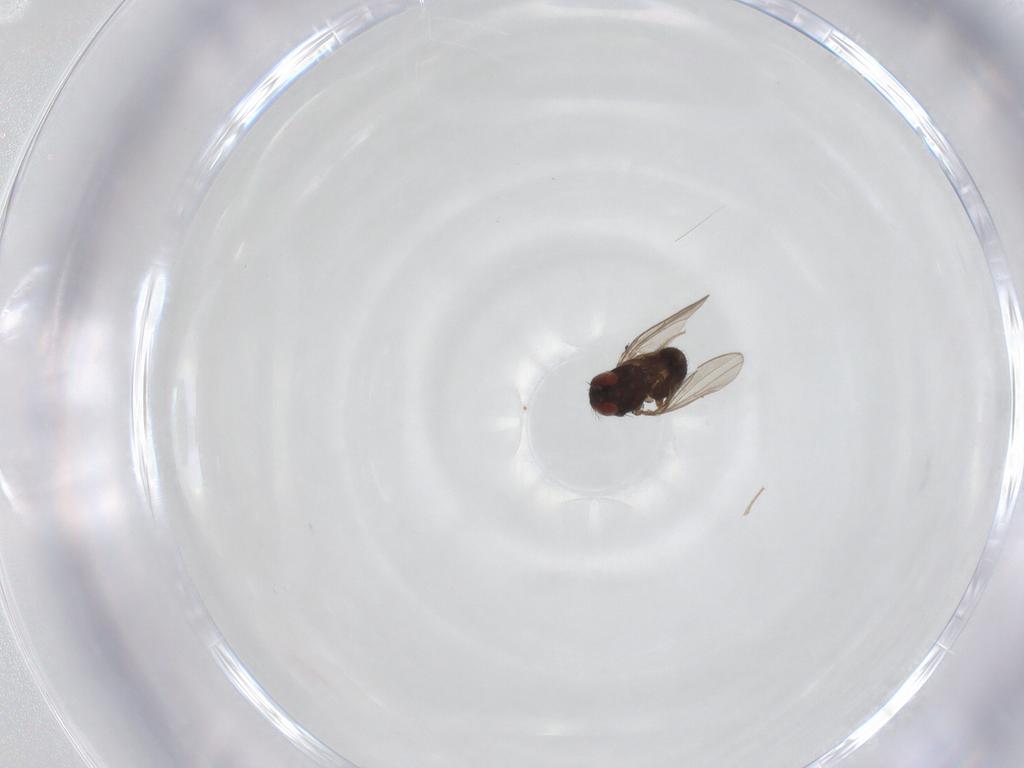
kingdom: Animalia
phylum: Arthropoda
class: Insecta
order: Diptera
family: Drosophilidae
